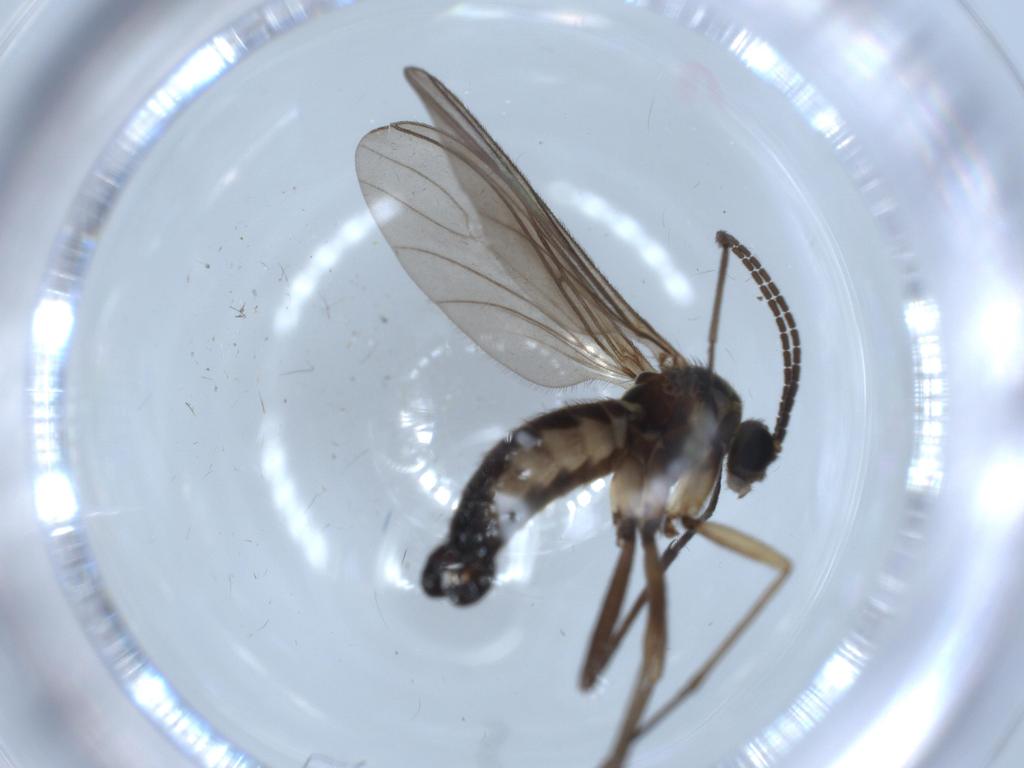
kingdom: Animalia
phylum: Arthropoda
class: Insecta
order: Diptera
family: Sciaridae
